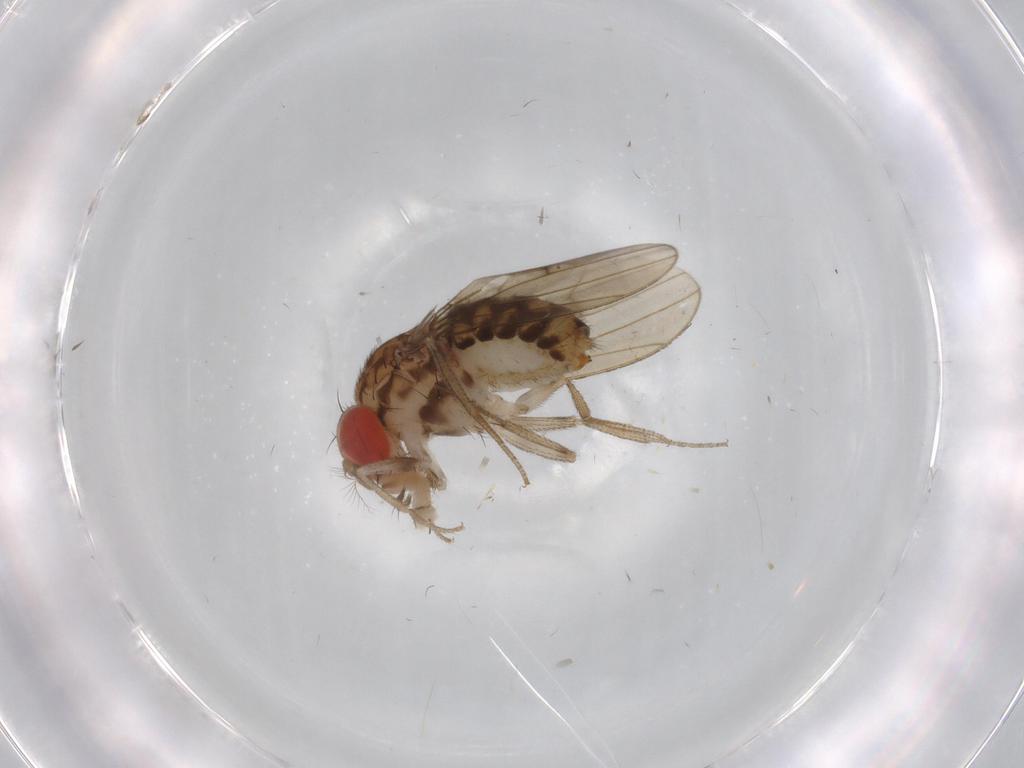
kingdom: Animalia
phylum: Arthropoda
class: Insecta
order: Diptera
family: Drosophilidae
